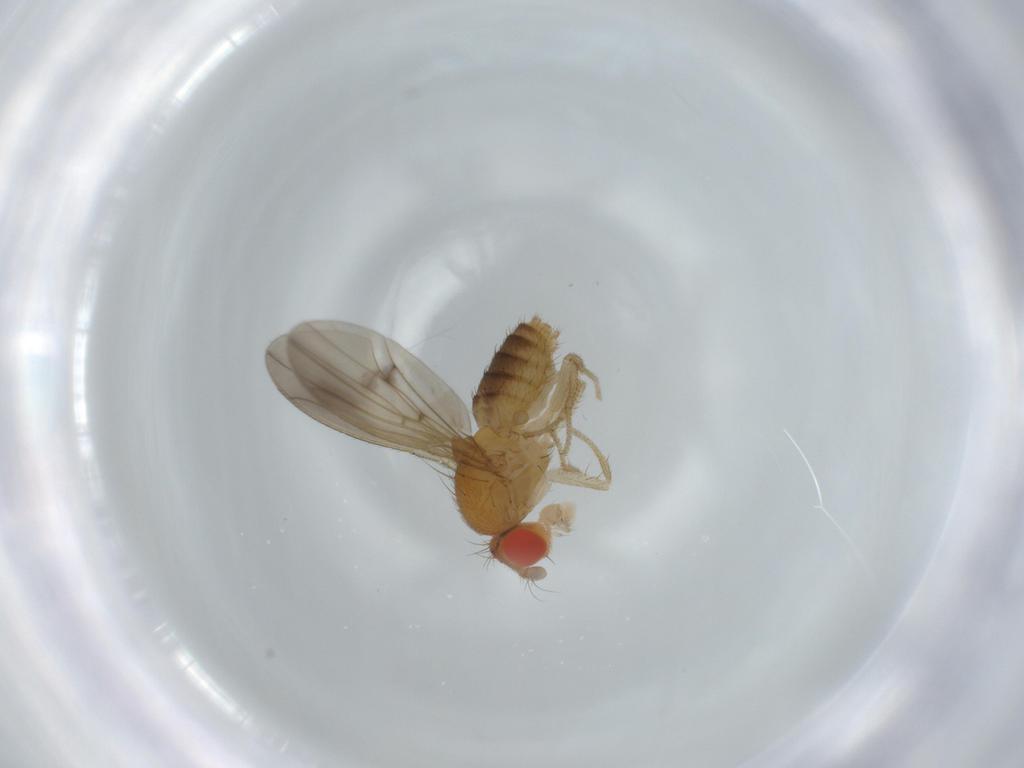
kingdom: Animalia
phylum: Arthropoda
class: Insecta
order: Diptera
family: Drosophilidae
